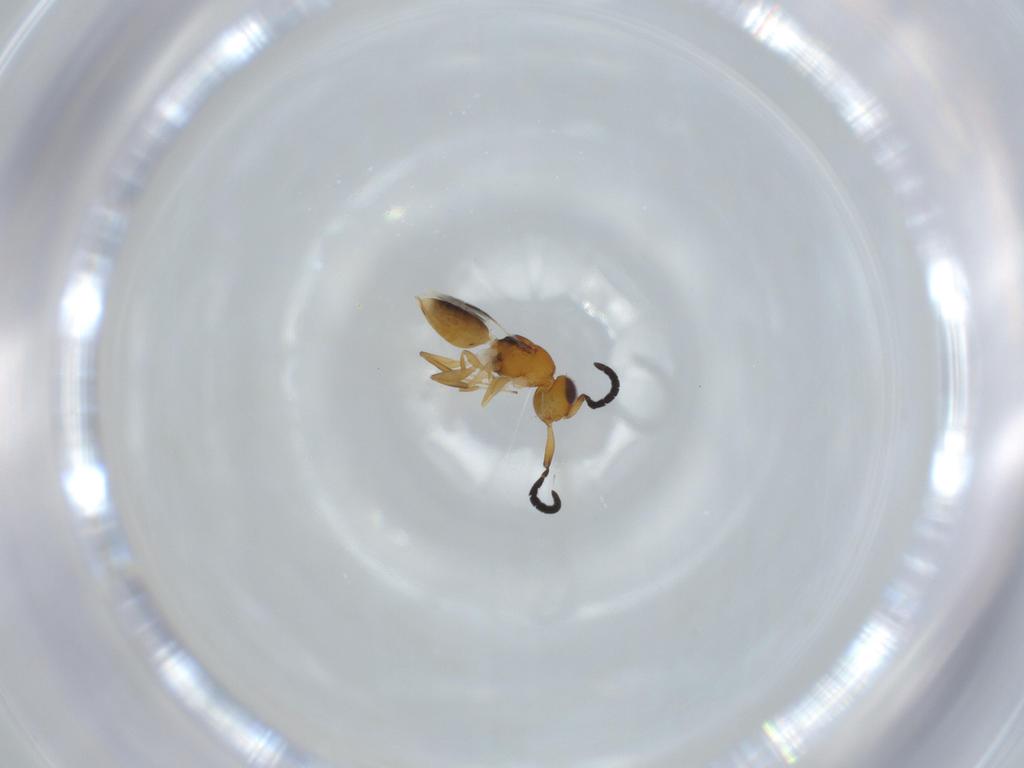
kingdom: Animalia
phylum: Arthropoda
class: Insecta
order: Hymenoptera
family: Megaspilidae
